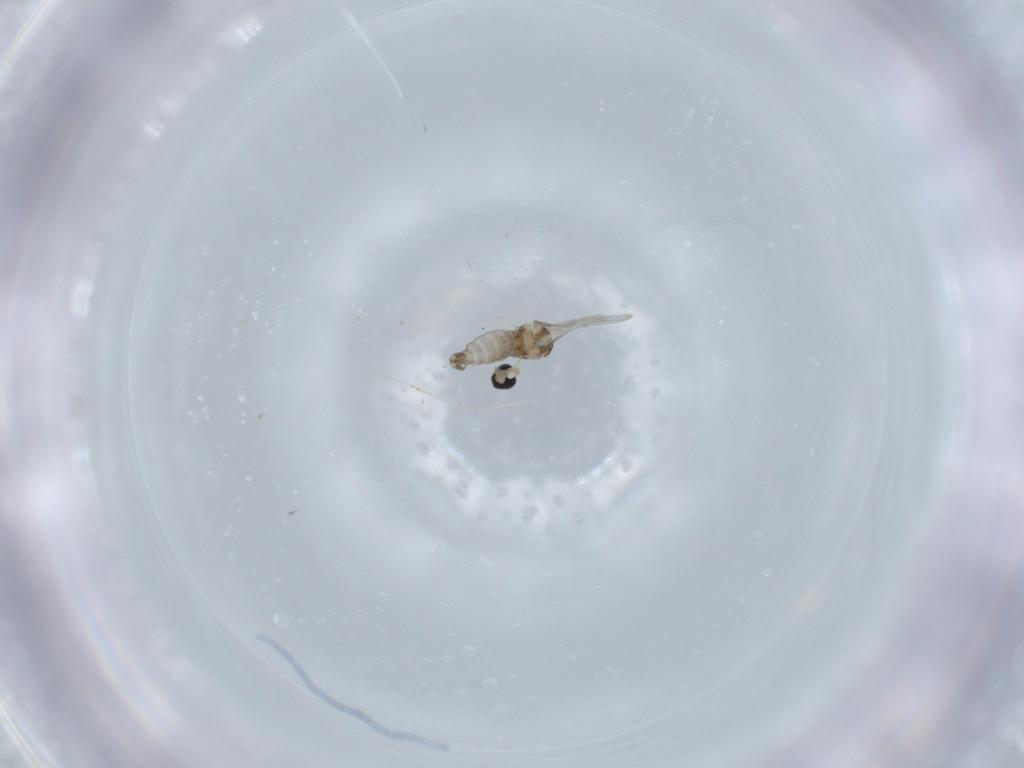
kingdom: Animalia
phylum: Arthropoda
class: Insecta
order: Diptera
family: Cecidomyiidae
